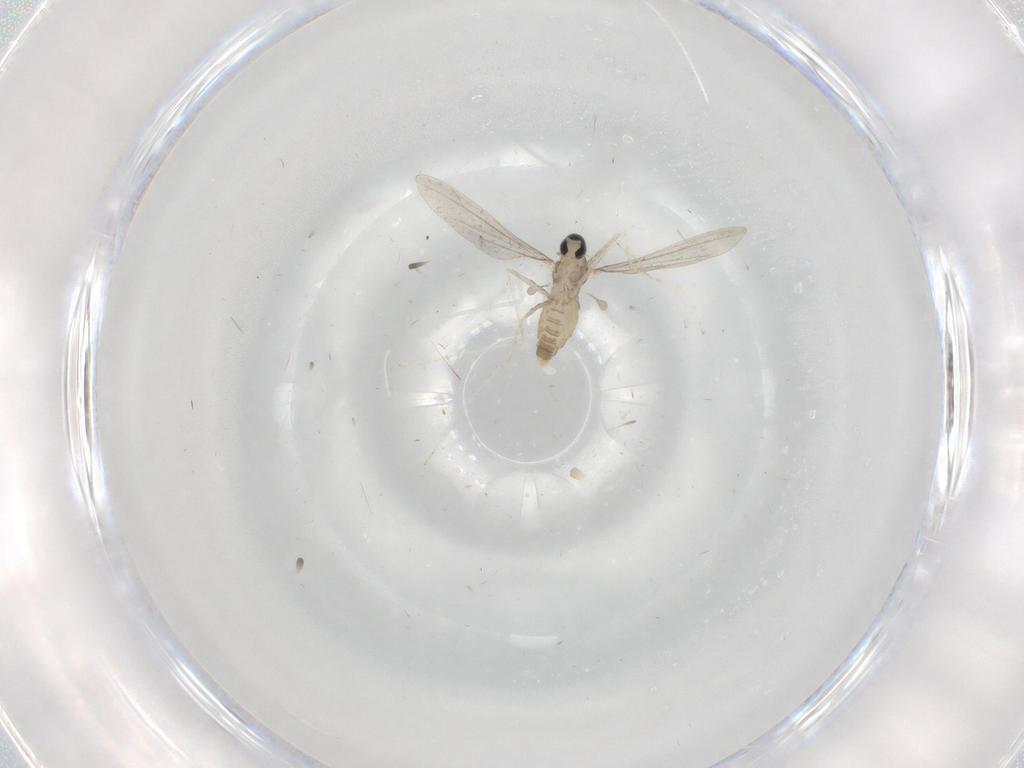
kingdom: Animalia
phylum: Arthropoda
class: Insecta
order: Diptera
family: Cecidomyiidae
